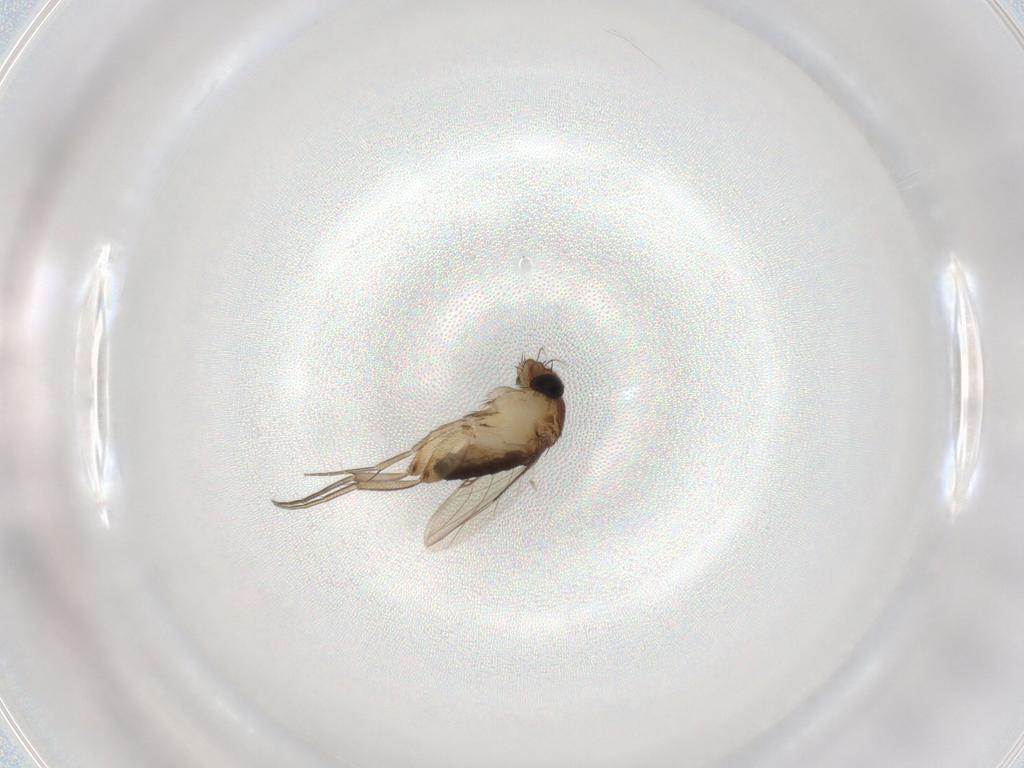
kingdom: Animalia
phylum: Arthropoda
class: Insecta
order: Diptera
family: Phoridae
